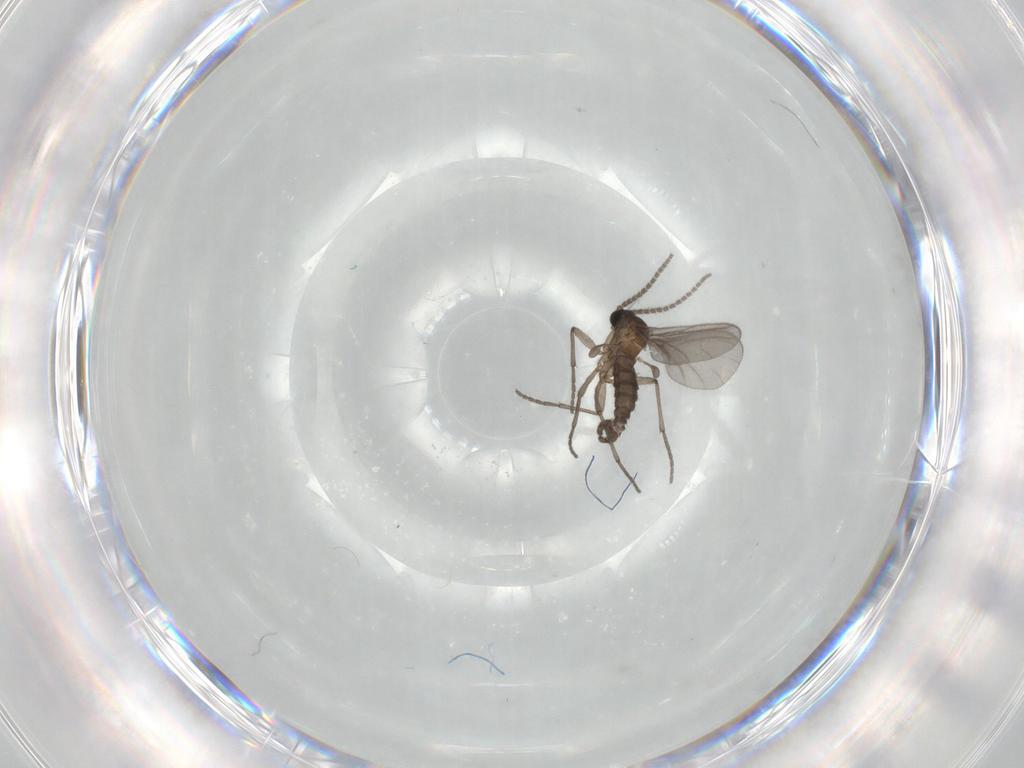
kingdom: Animalia
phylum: Arthropoda
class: Insecta
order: Diptera
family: Sciaridae
